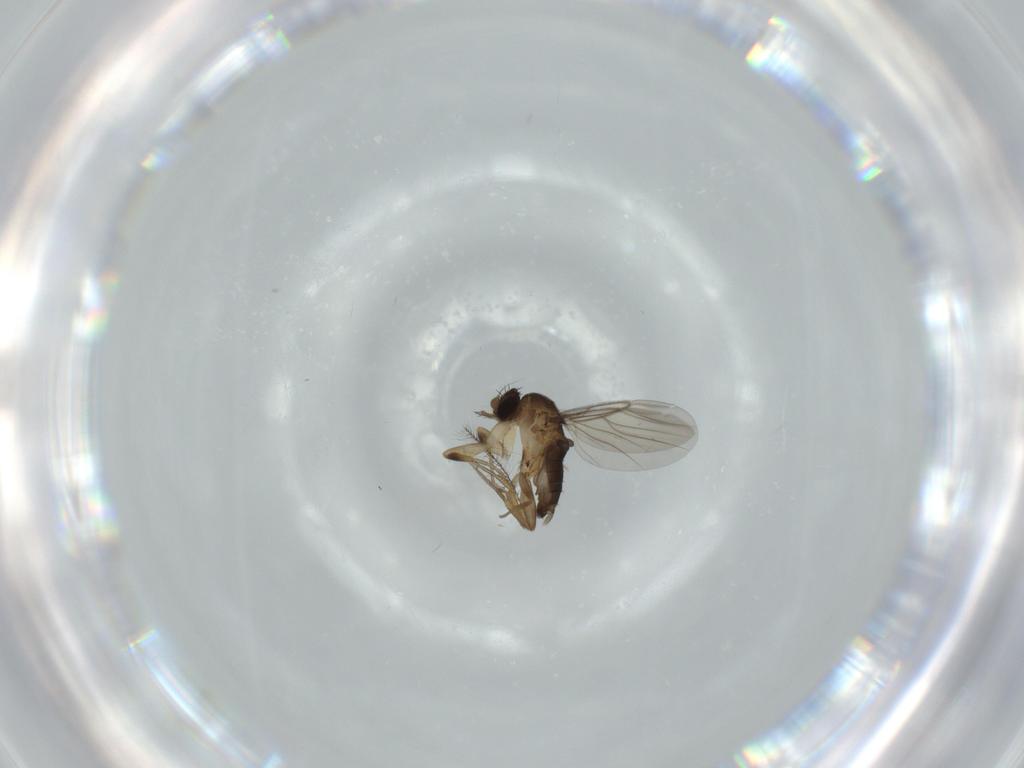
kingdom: Animalia
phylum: Arthropoda
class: Insecta
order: Diptera
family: Phoridae
